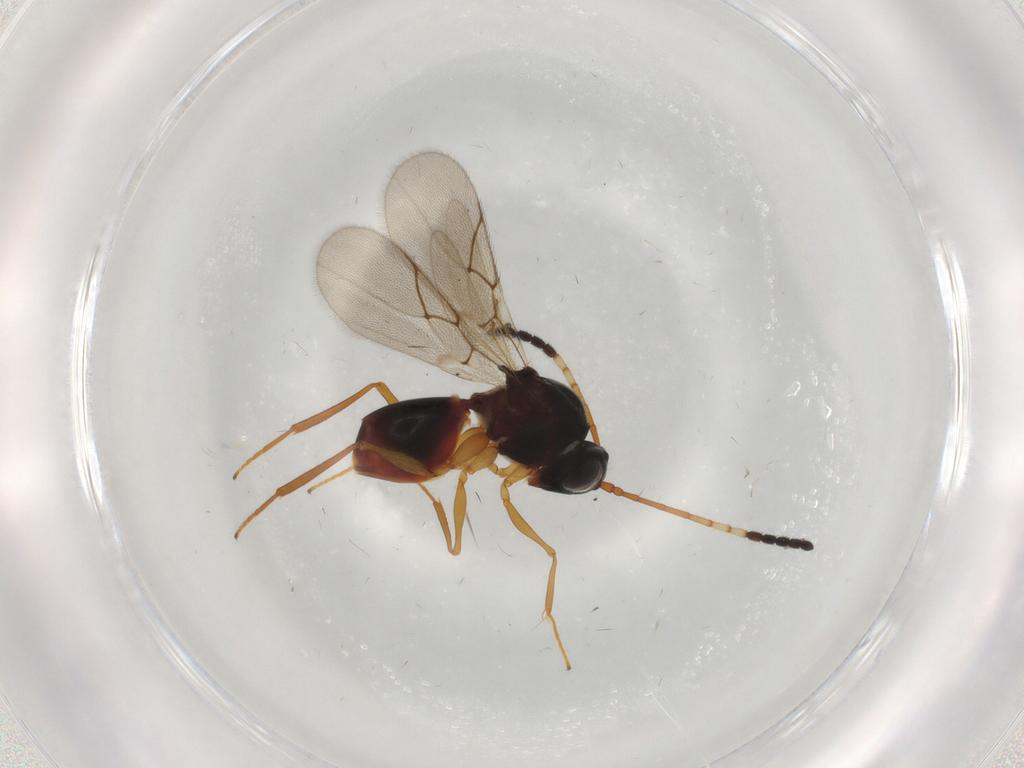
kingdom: Animalia
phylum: Arthropoda
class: Insecta
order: Hymenoptera
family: Figitidae
